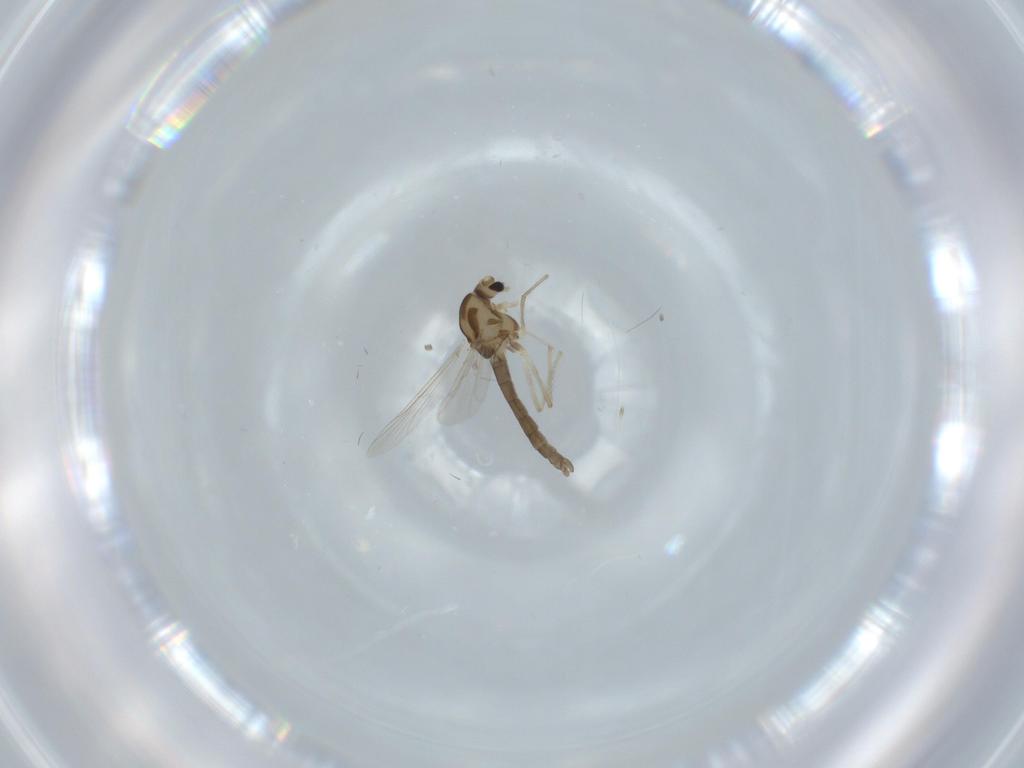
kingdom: Animalia
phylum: Arthropoda
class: Insecta
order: Diptera
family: Chironomidae
